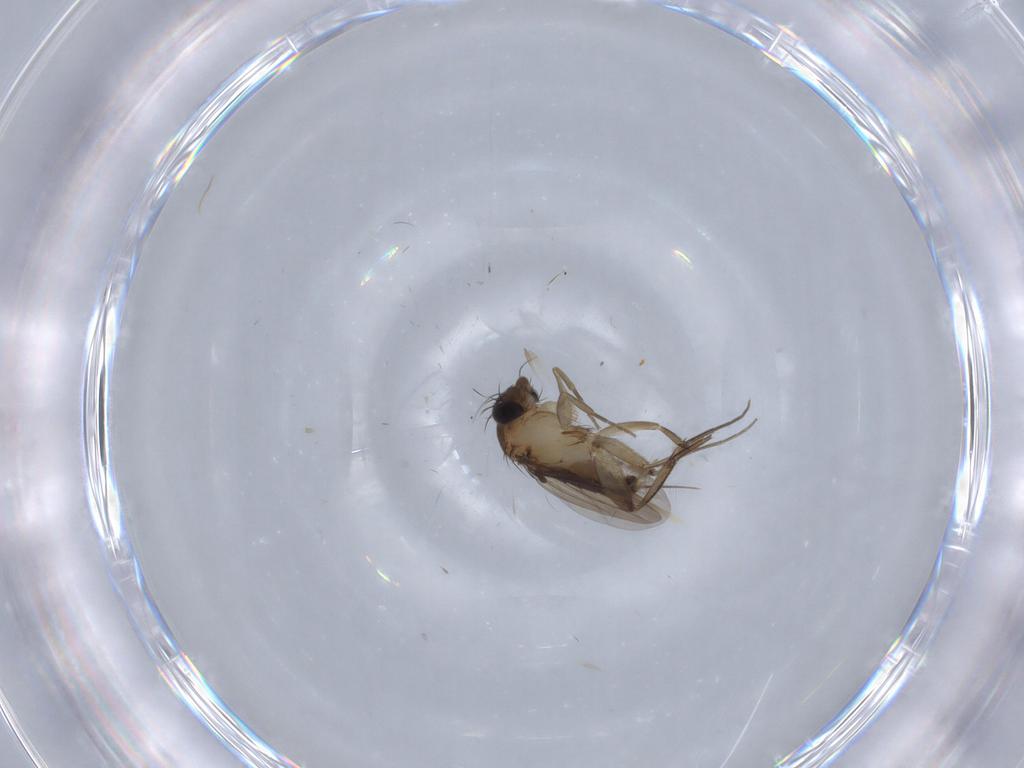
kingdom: Animalia
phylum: Arthropoda
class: Insecta
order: Diptera
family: Phoridae
